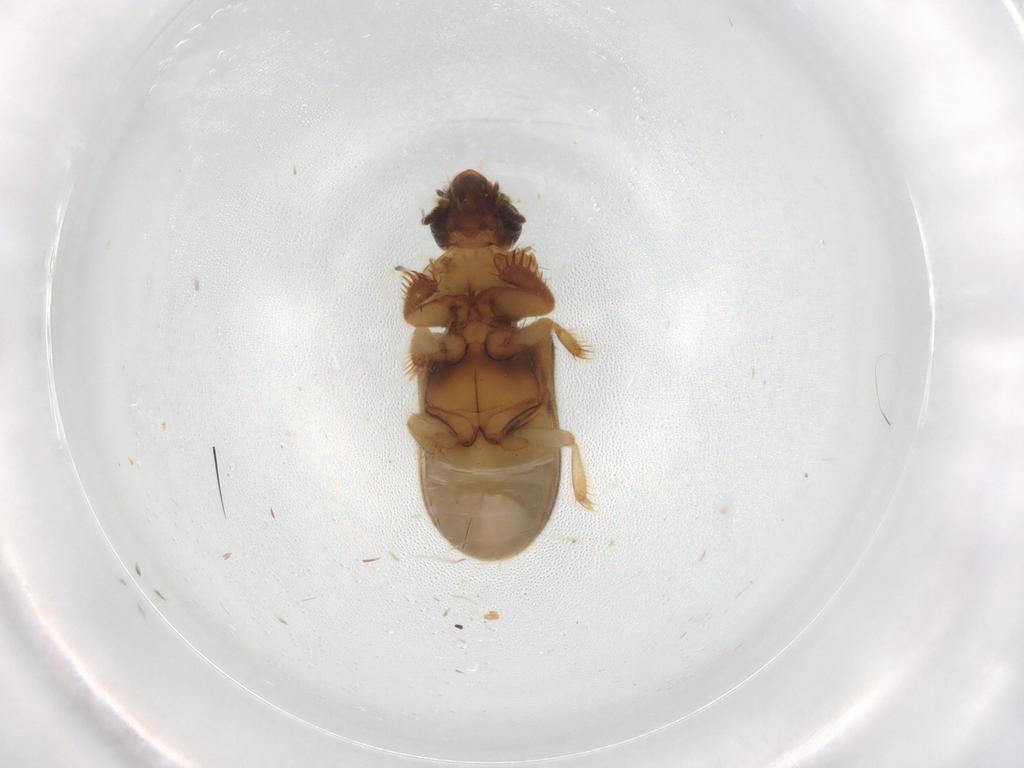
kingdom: Animalia
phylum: Arthropoda
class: Insecta
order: Coleoptera
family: Heteroceridae
